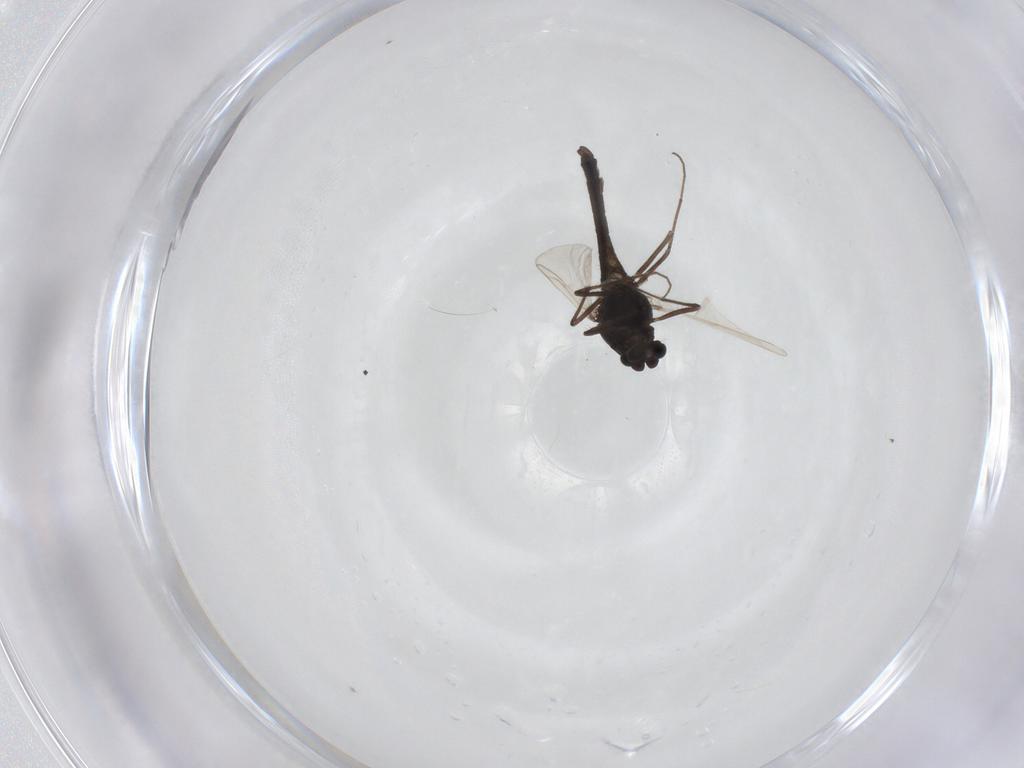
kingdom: Animalia
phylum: Arthropoda
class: Insecta
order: Diptera
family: Chironomidae
